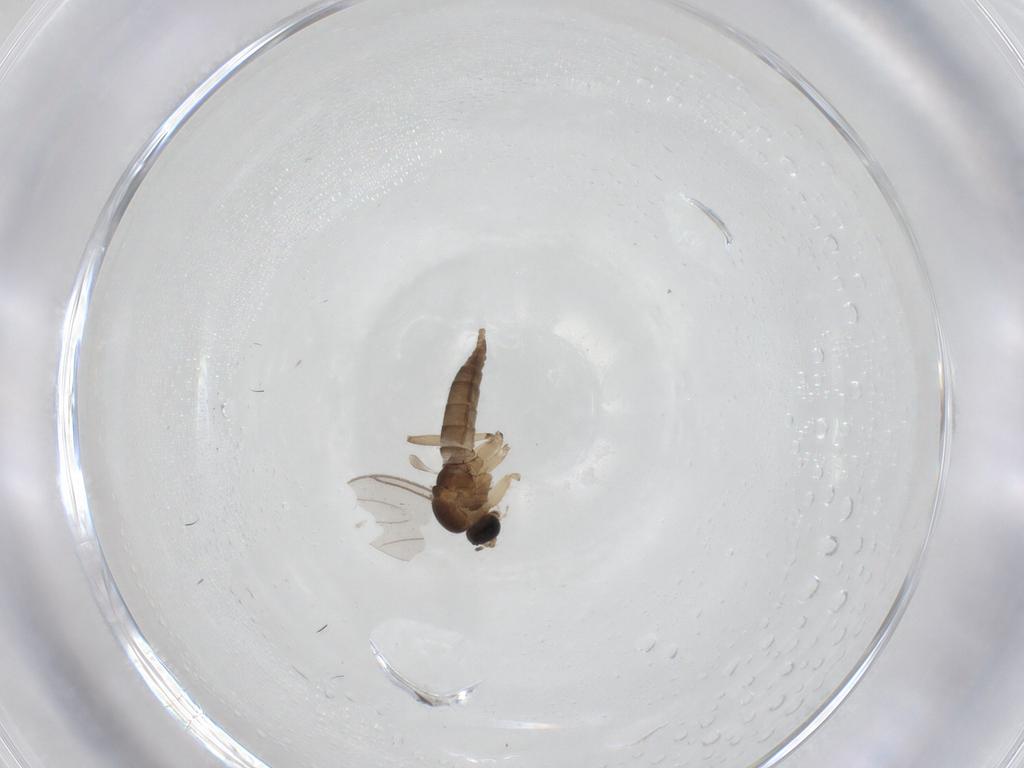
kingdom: Animalia
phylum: Arthropoda
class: Insecta
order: Diptera
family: Sciaridae
